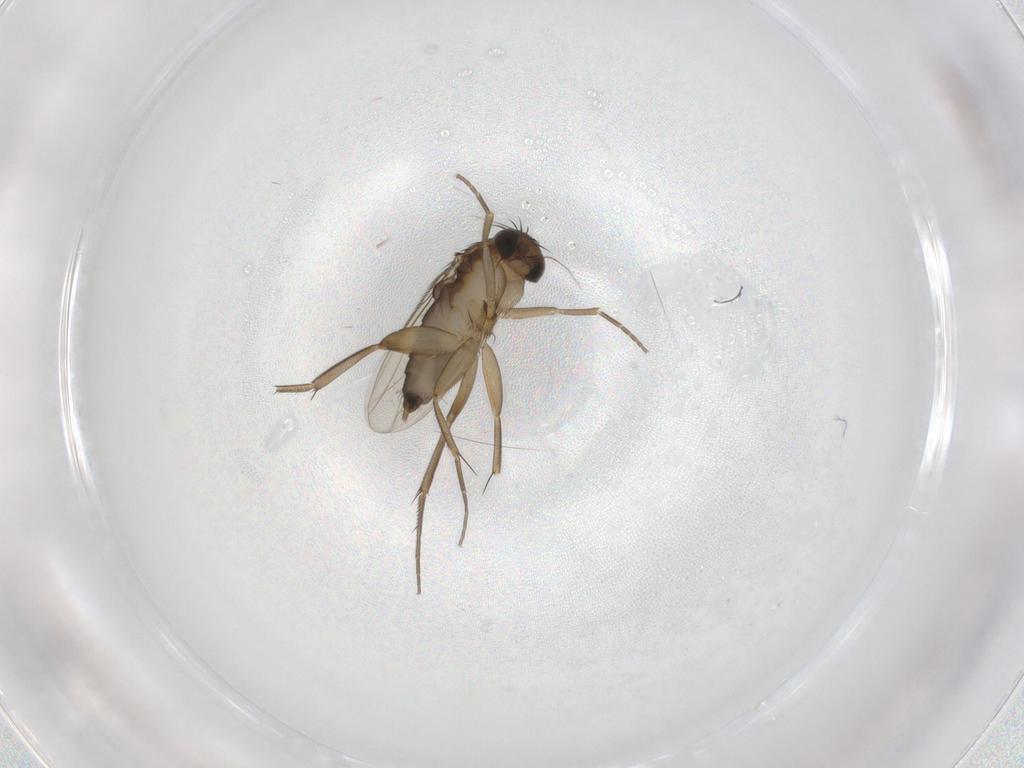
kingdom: Animalia
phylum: Arthropoda
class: Insecta
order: Diptera
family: Phoridae
